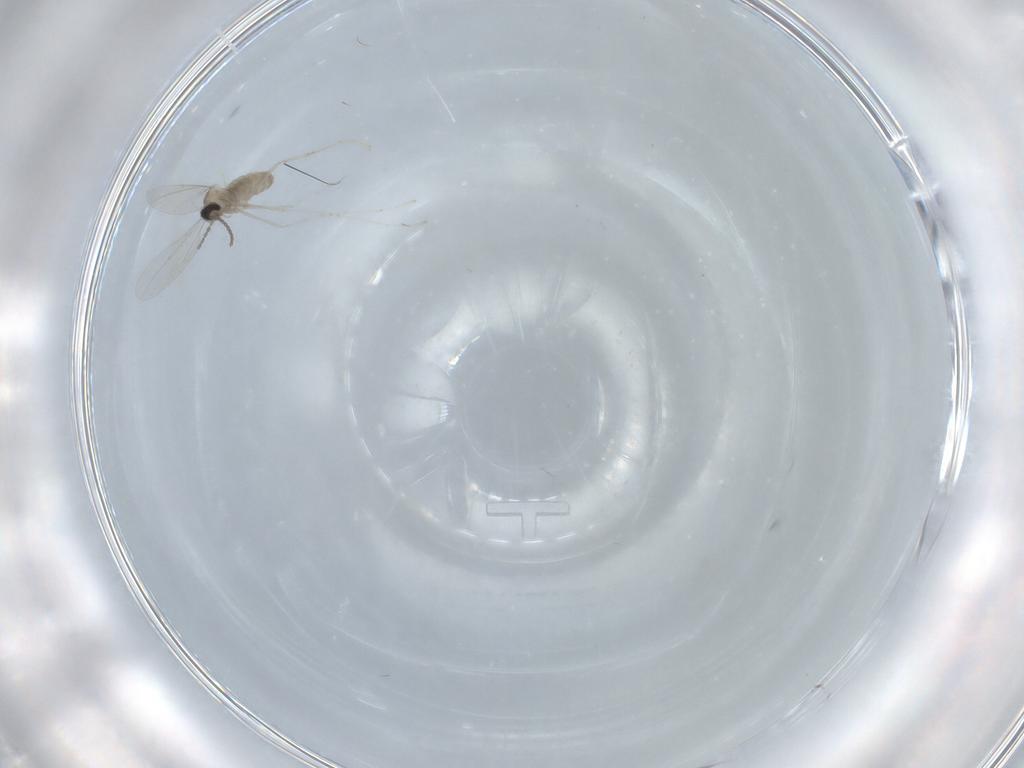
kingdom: Animalia
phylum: Arthropoda
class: Insecta
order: Diptera
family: Cecidomyiidae
